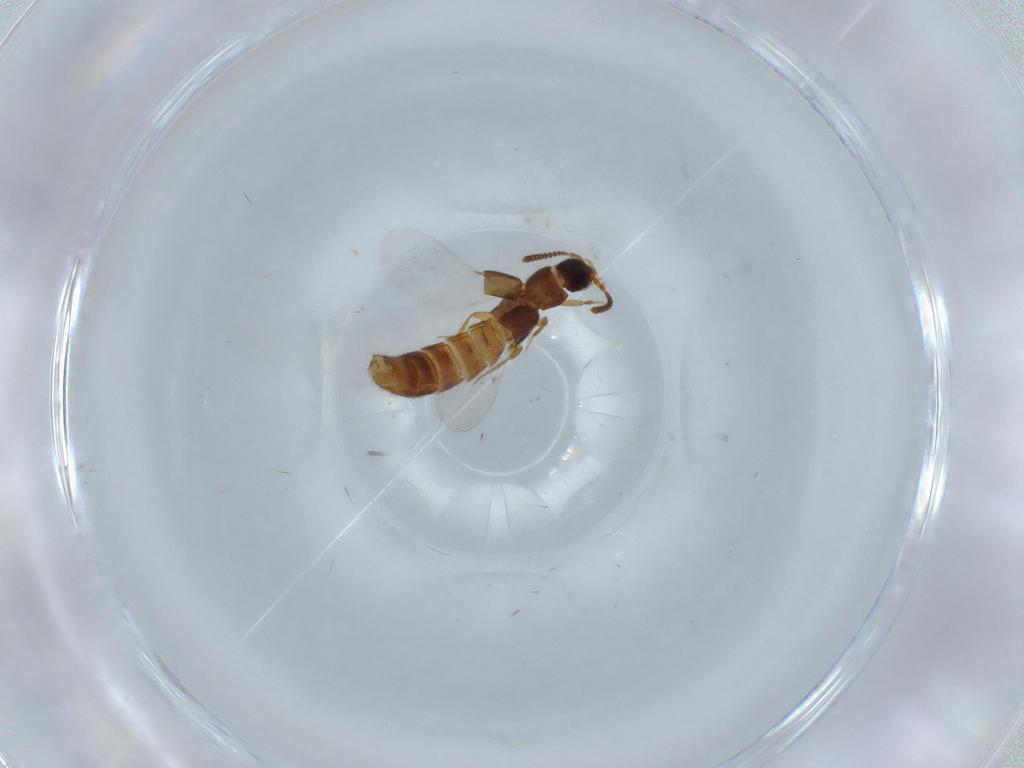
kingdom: Animalia
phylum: Arthropoda
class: Insecta
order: Coleoptera
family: Staphylinidae
